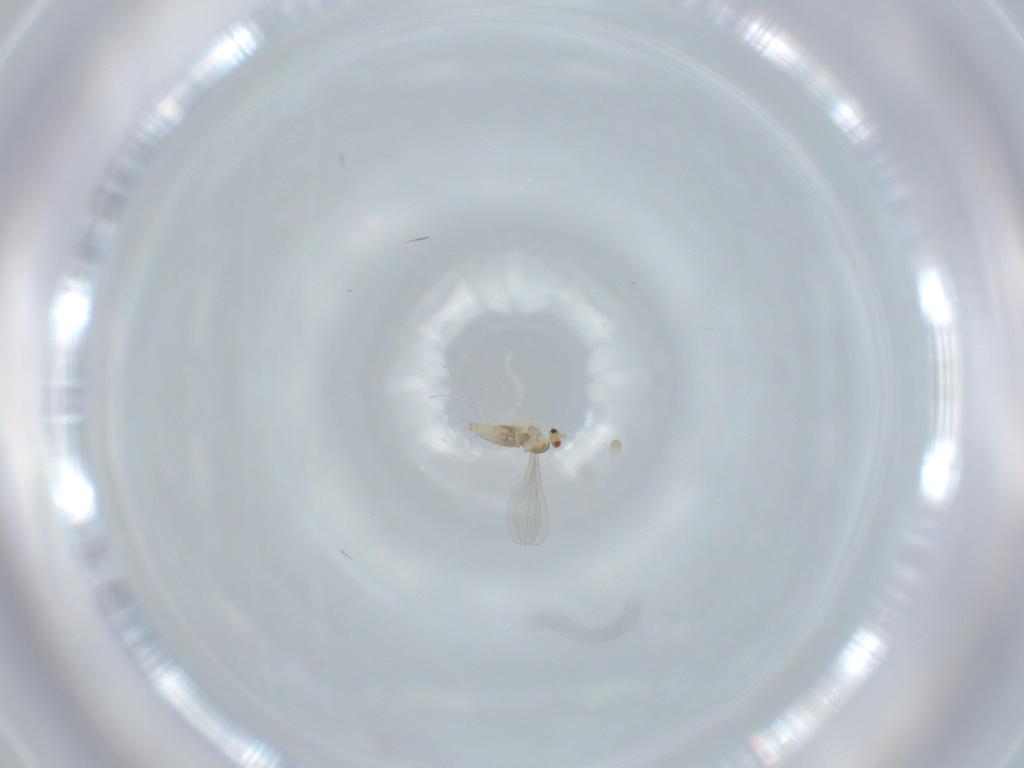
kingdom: Animalia
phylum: Arthropoda
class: Insecta
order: Diptera
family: Cecidomyiidae
